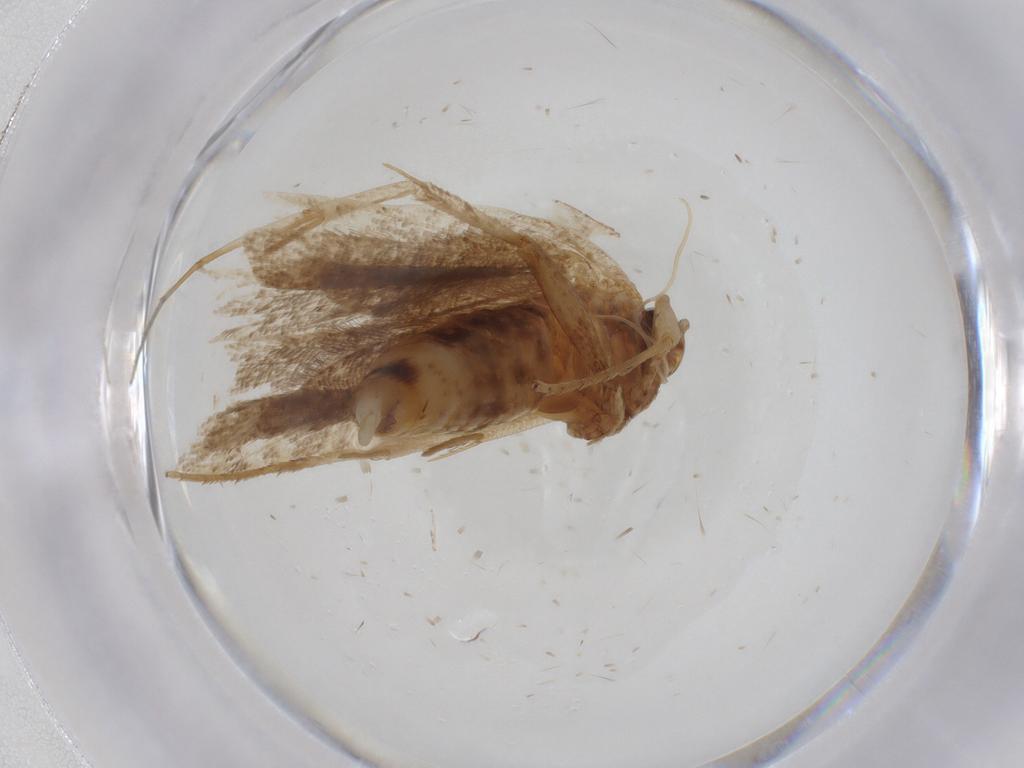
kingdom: Animalia
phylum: Arthropoda
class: Insecta
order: Lepidoptera
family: Lecithoceridae
